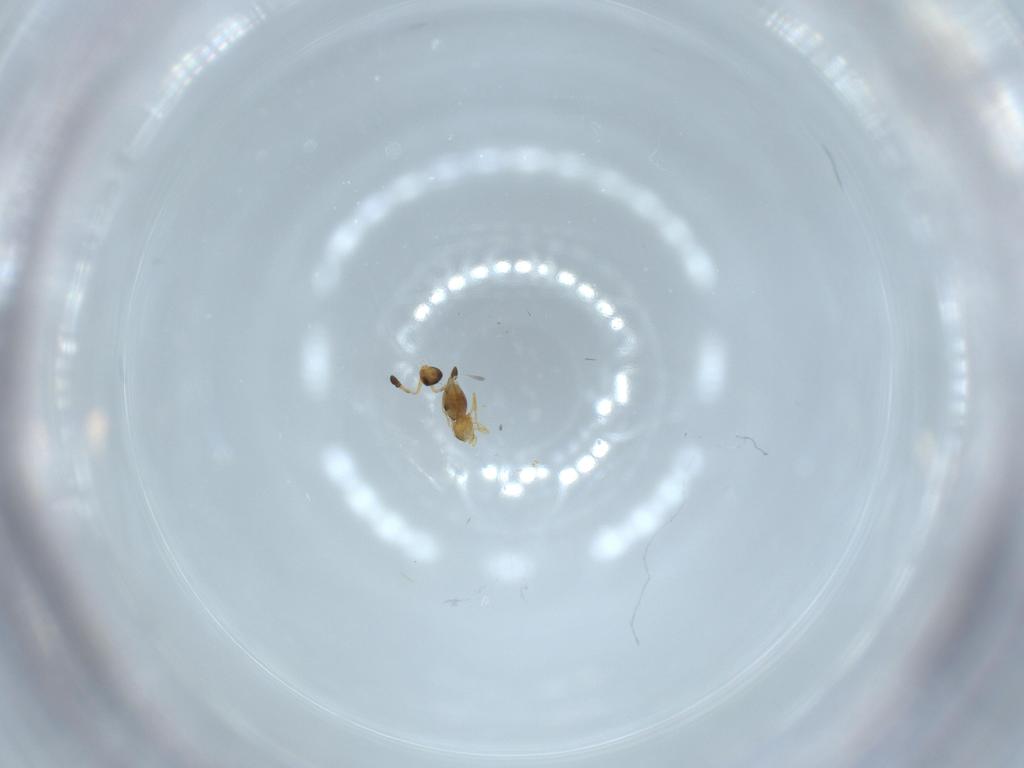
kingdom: Animalia
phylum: Arthropoda
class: Insecta
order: Hymenoptera
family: Ceraphronidae
